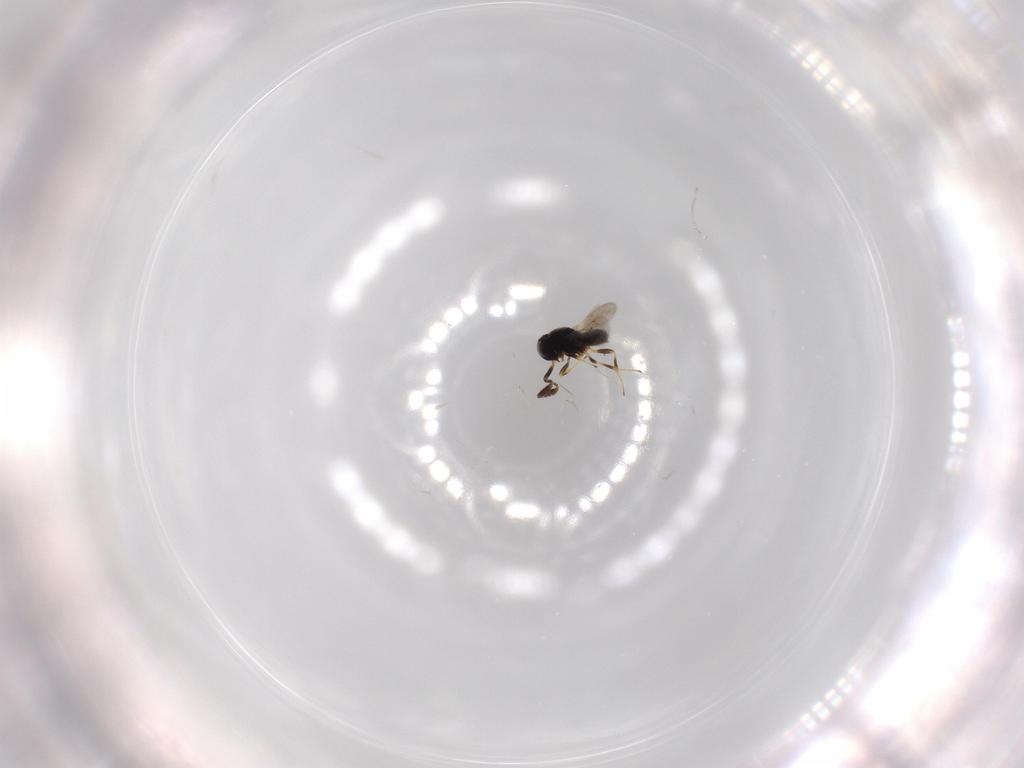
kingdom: Animalia
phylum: Arthropoda
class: Insecta
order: Hymenoptera
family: Scelionidae
